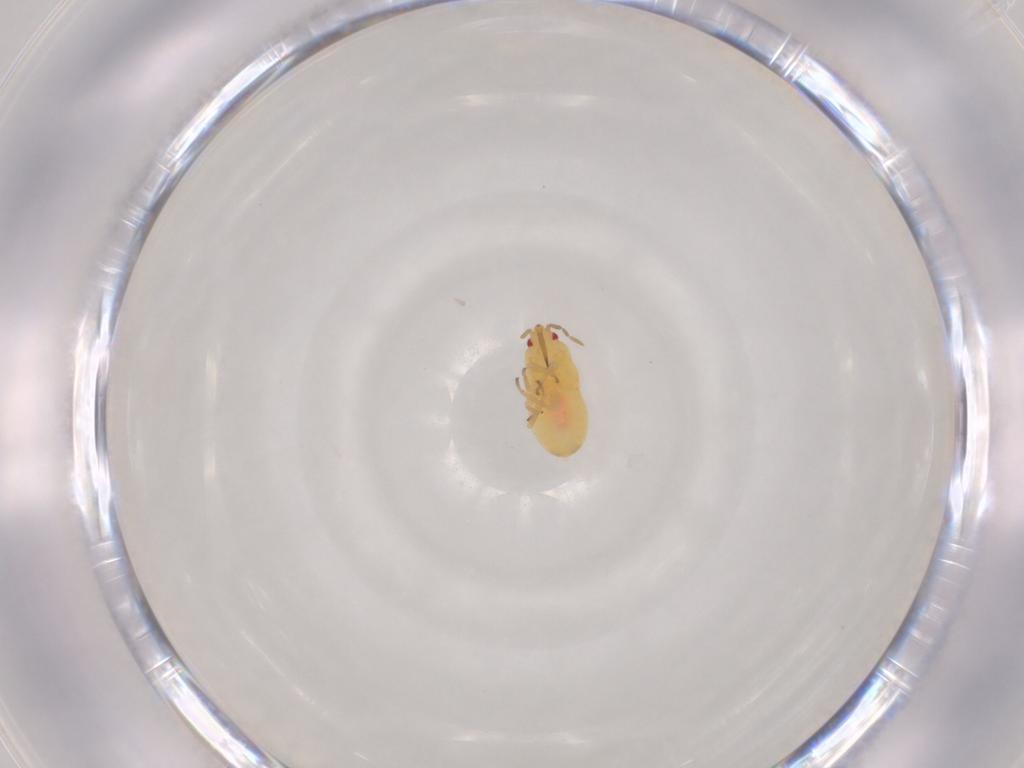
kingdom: Animalia
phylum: Arthropoda
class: Insecta
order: Hemiptera
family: Anthocoridae
